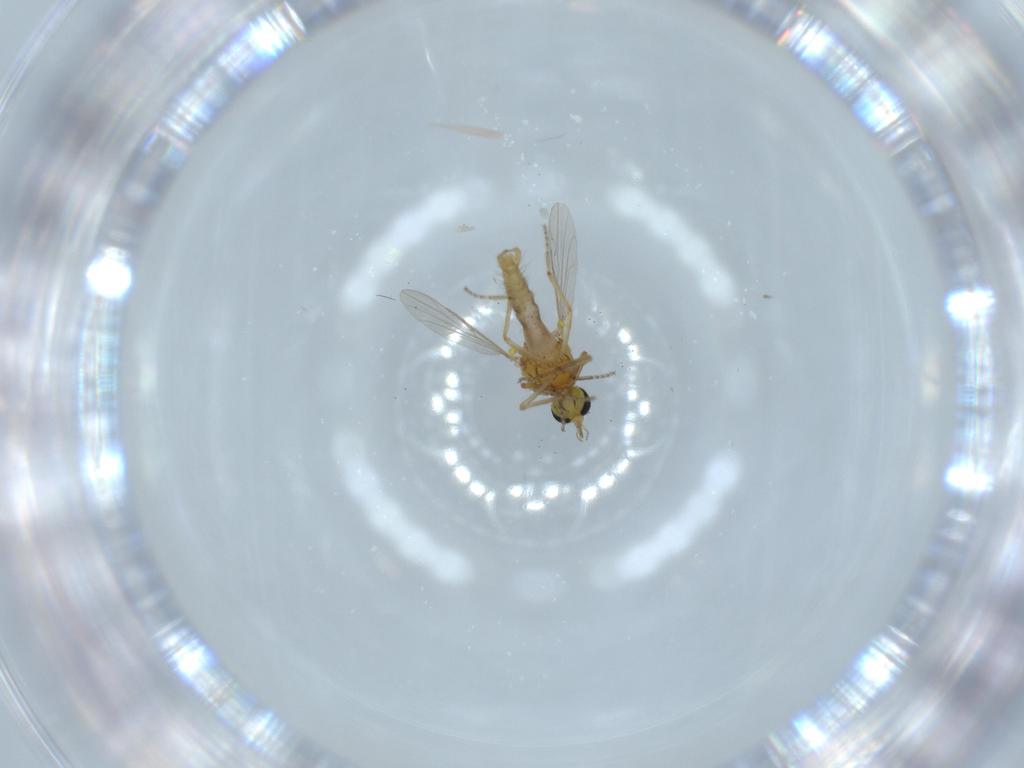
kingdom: Animalia
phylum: Arthropoda
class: Insecta
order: Diptera
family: Ceratopogonidae
